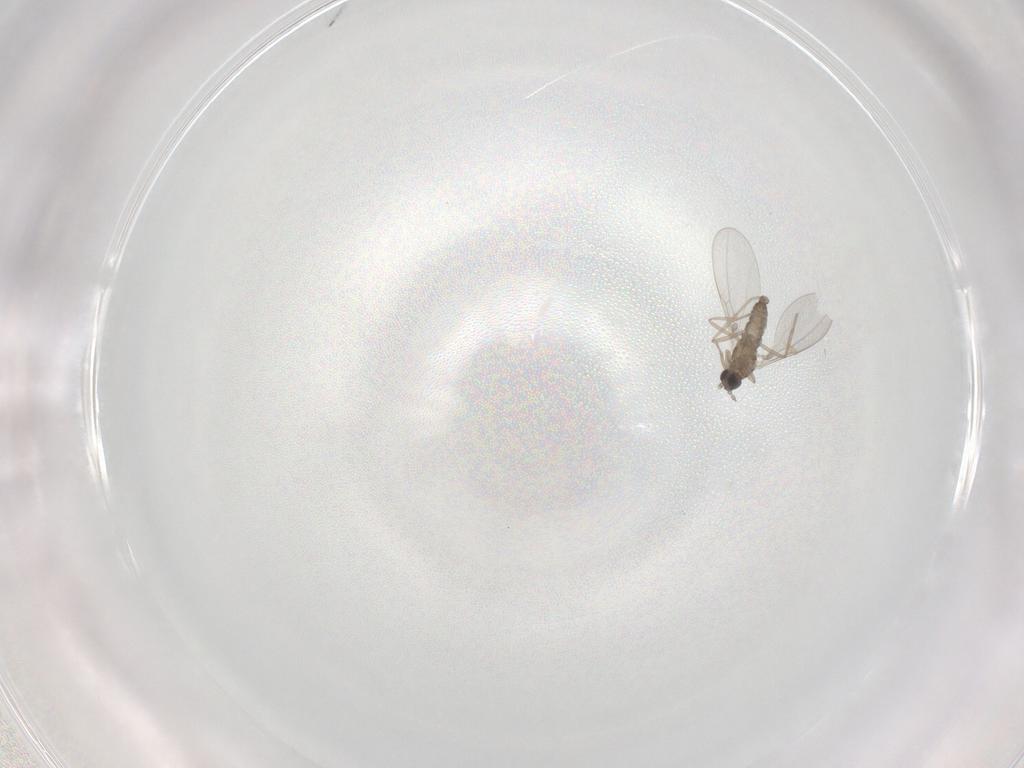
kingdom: Animalia
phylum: Arthropoda
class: Insecta
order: Diptera
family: Cecidomyiidae
